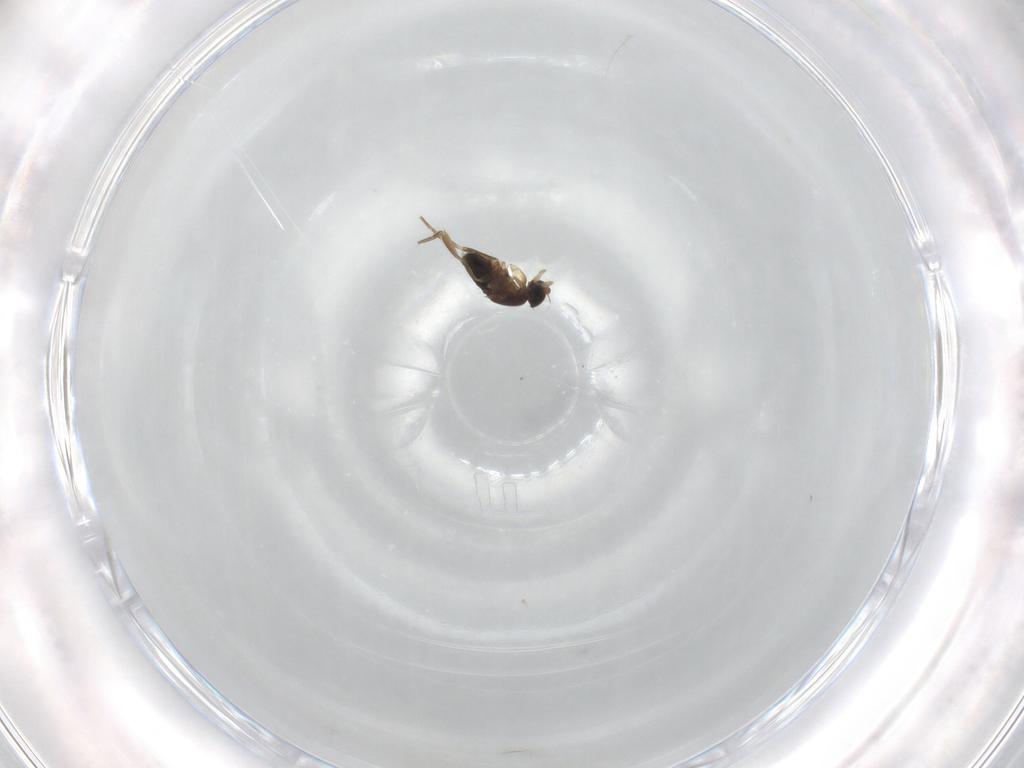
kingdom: Animalia
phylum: Arthropoda
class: Insecta
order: Diptera
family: Phoridae
